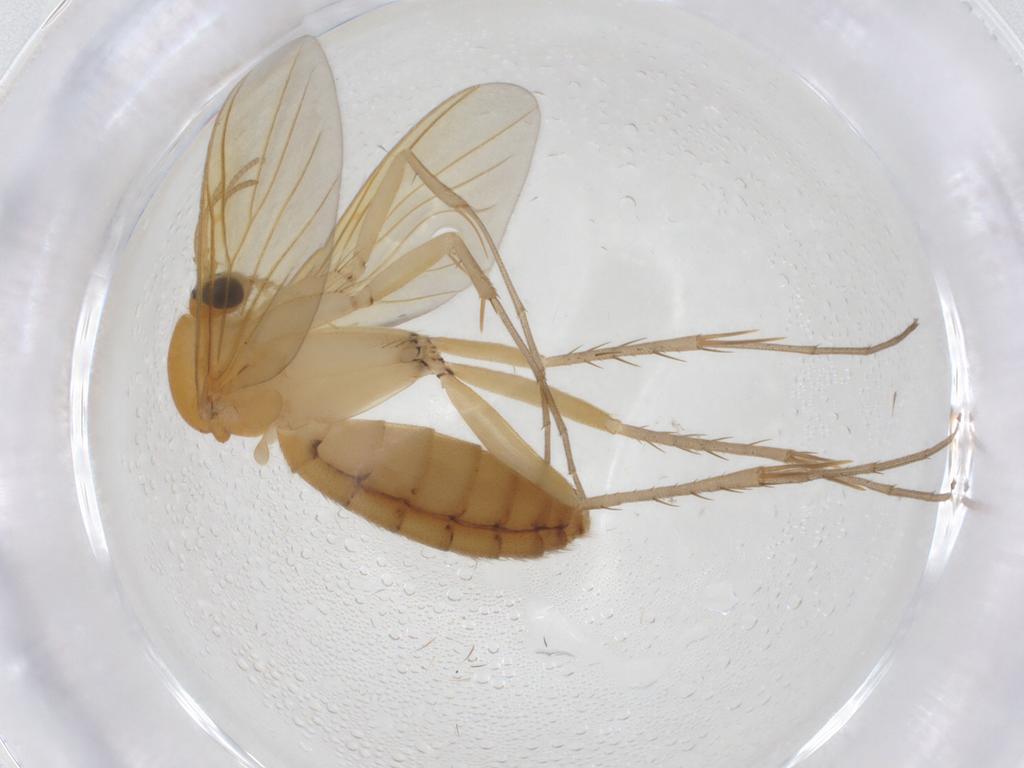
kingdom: Animalia
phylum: Arthropoda
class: Insecta
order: Diptera
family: Mycetophilidae
